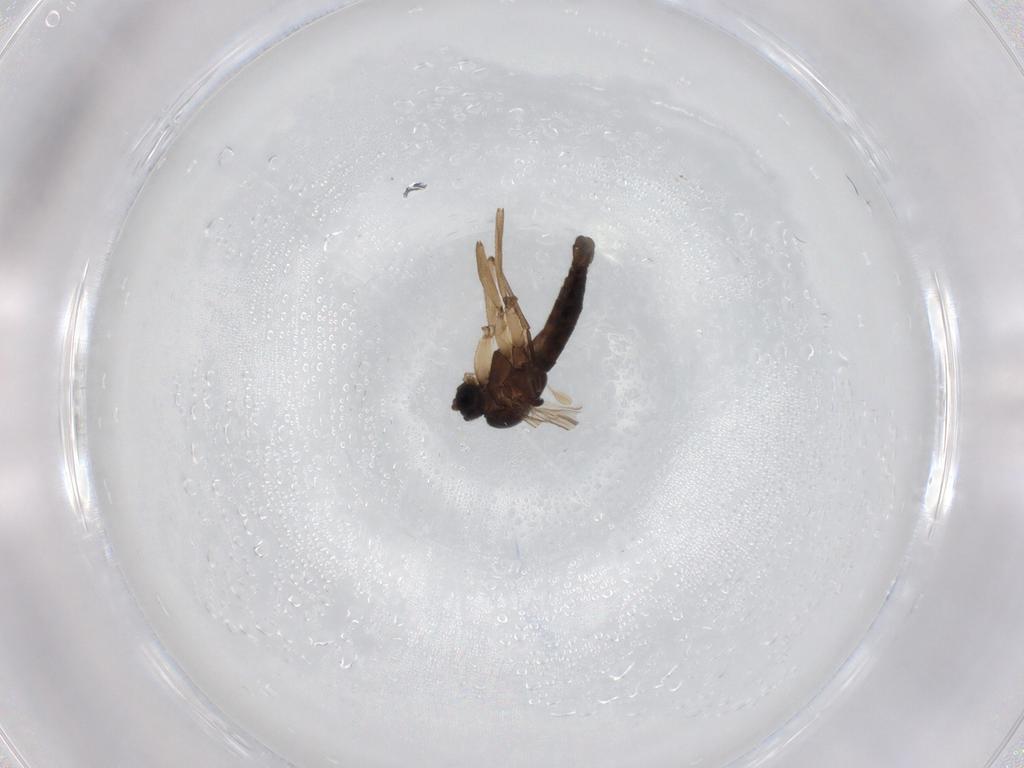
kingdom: Animalia
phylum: Arthropoda
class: Insecta
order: Diptera
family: Sciaridae
